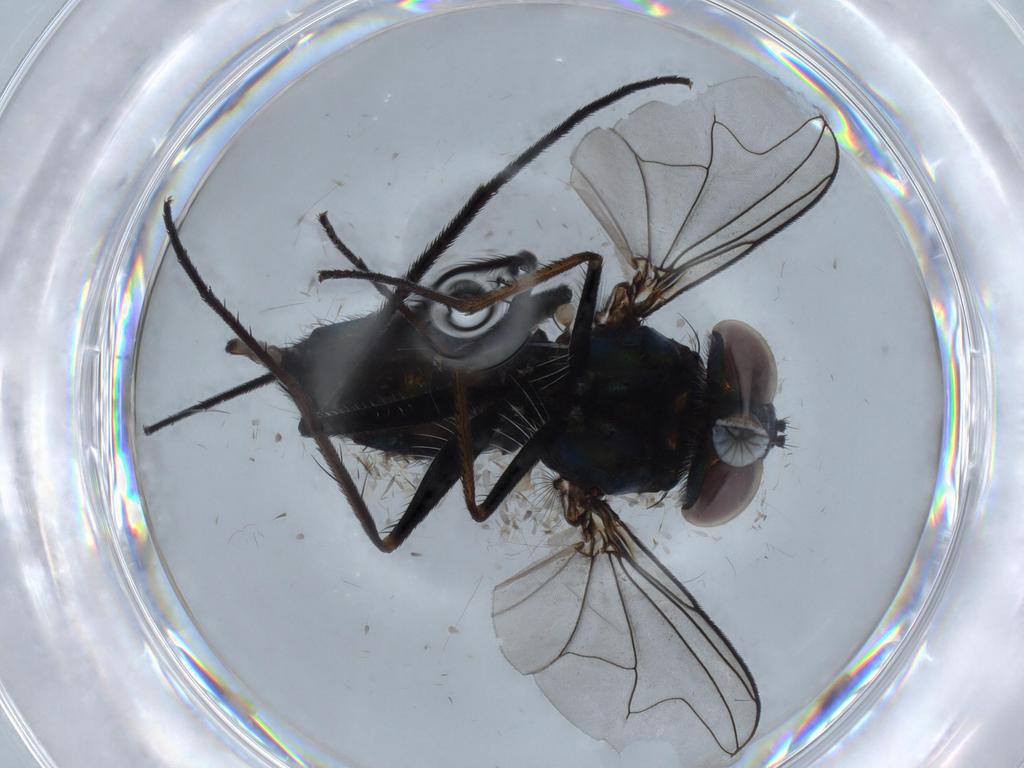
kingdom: Animalia
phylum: Arthropoda
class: Insecta
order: Diptera
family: Dolichopodidae
